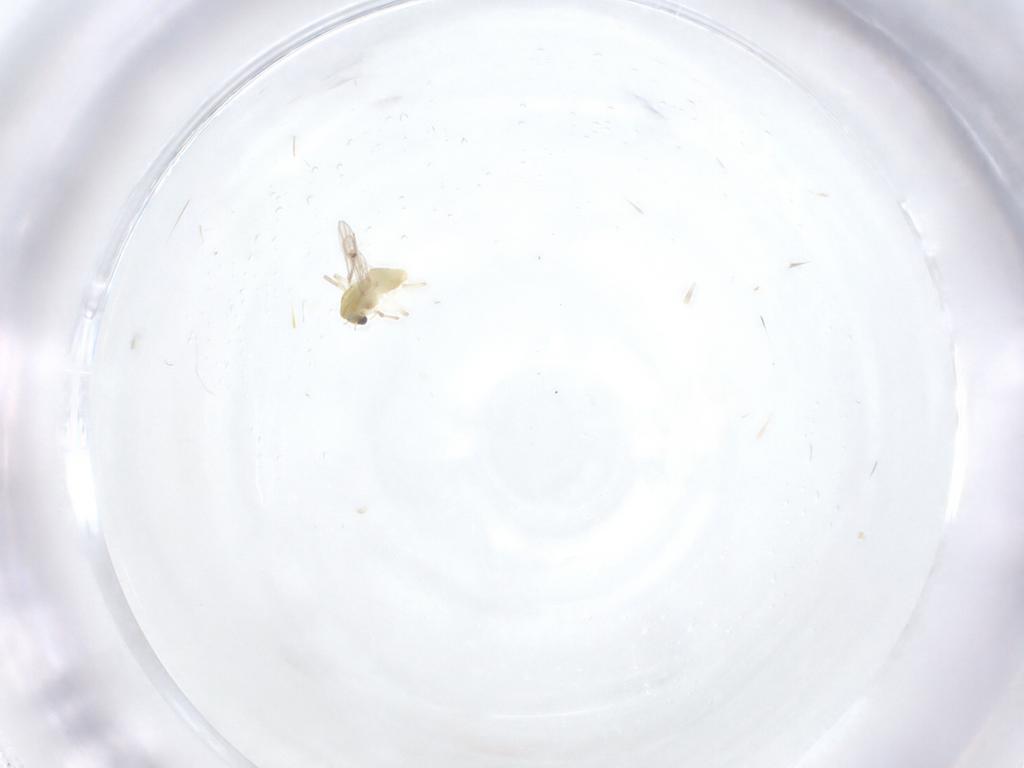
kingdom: Animalia
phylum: Arthropoda
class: Insecta
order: Diptera
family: Chironomidae
